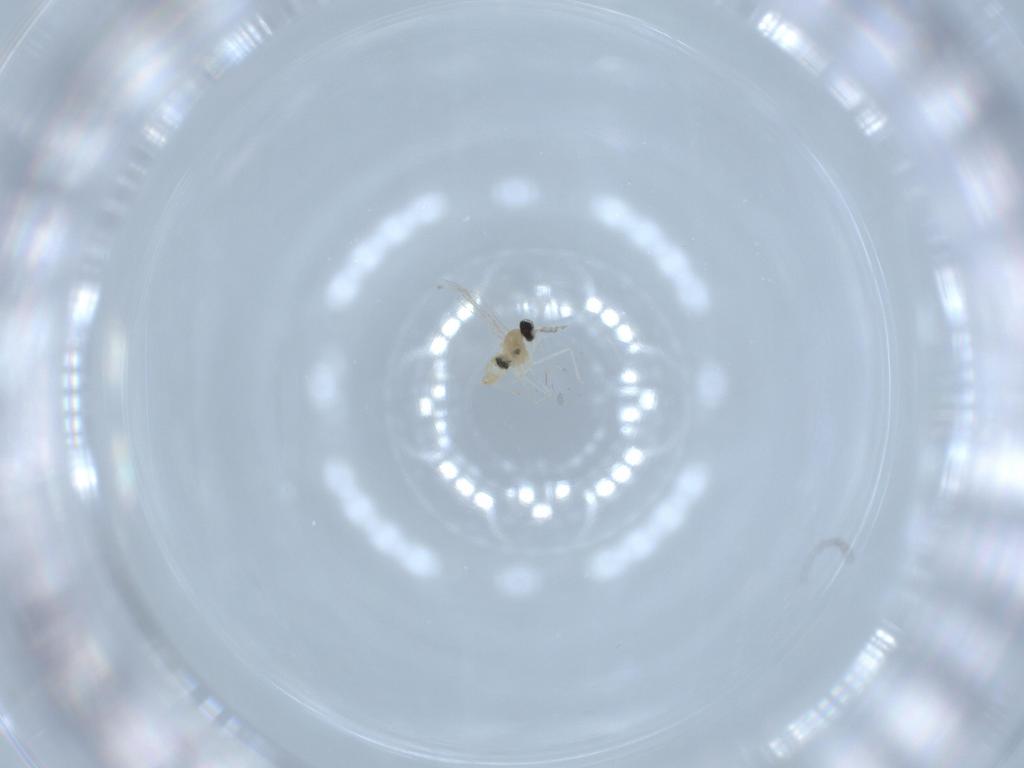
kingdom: Animalia
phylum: Arthropoda
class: Insecta
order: Diptera
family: Cecidomyiidae
